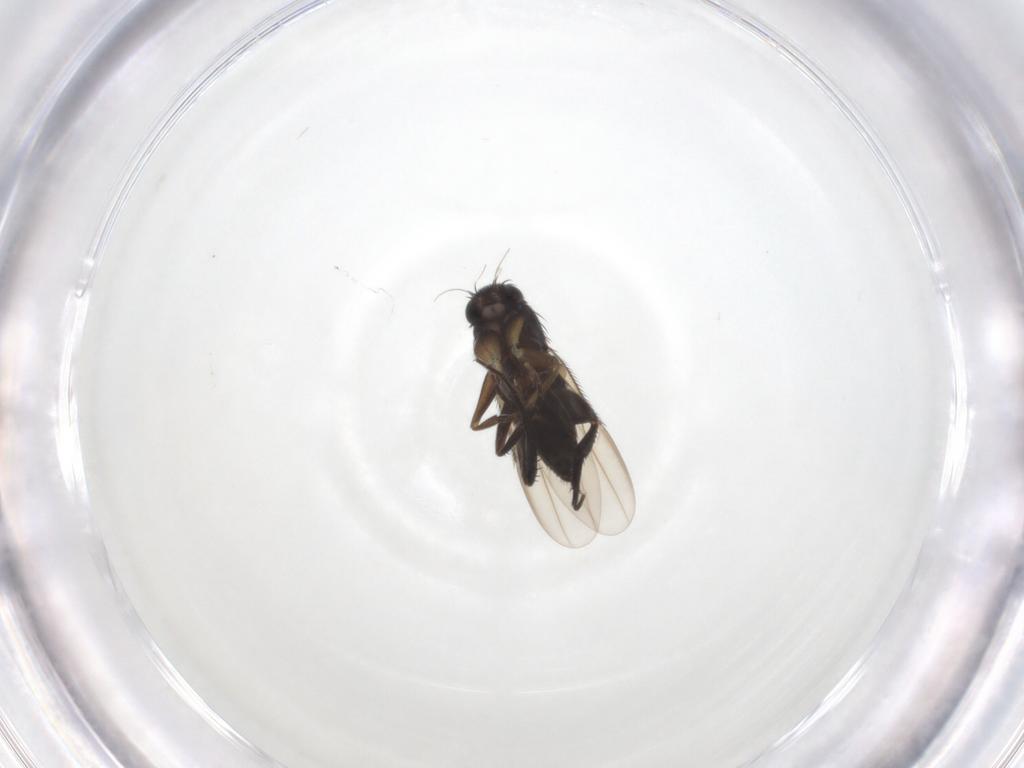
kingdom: Animalia
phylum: Arthropoda
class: Insecta
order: Diptera
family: Phoridae
